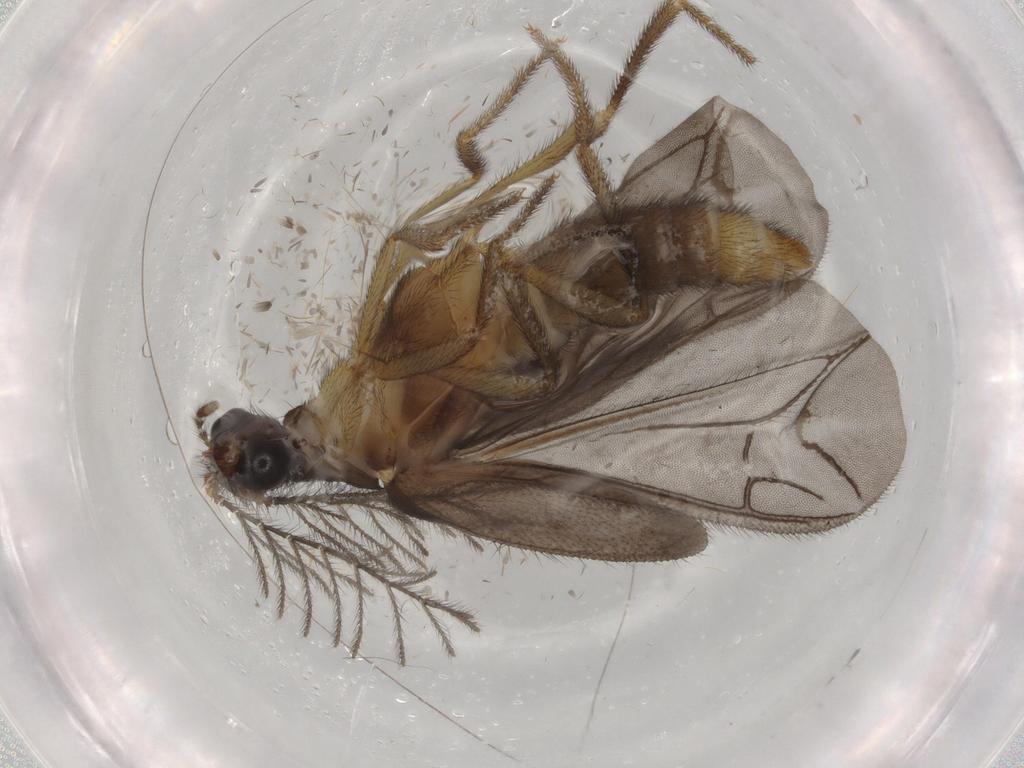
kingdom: Animalia
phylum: Arthropoda
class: Insecta
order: Coleoptera
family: Phengodidae
